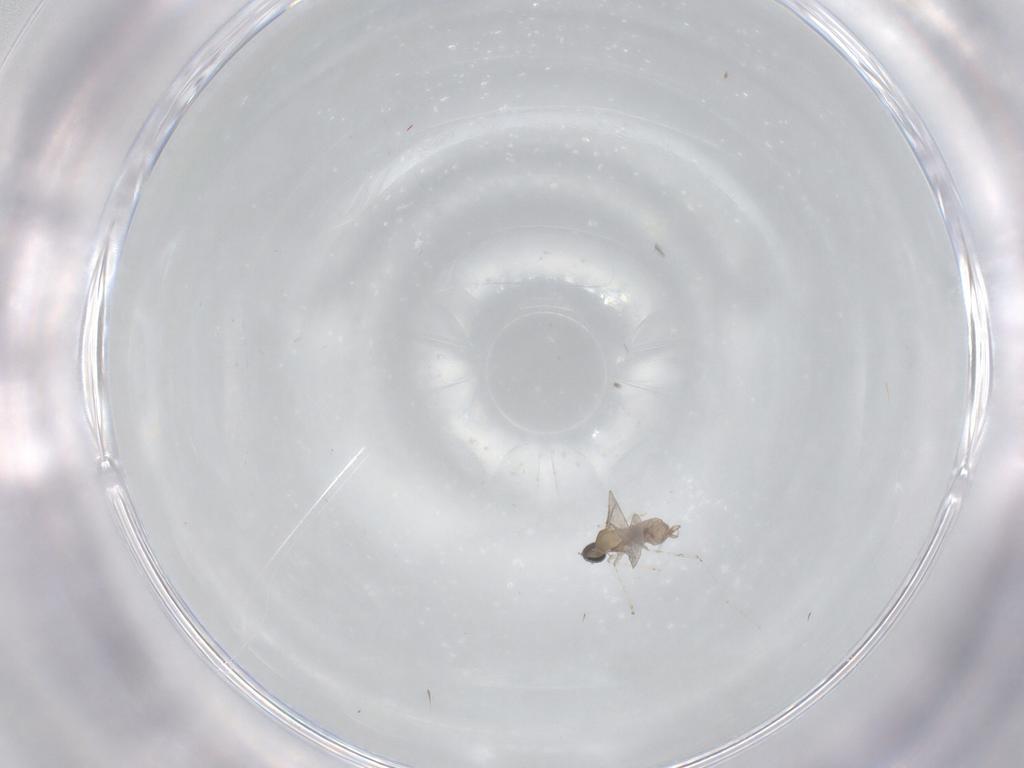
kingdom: Animalia
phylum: Arthropoda
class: Insecta
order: Diptera
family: Cecidomyiidae
